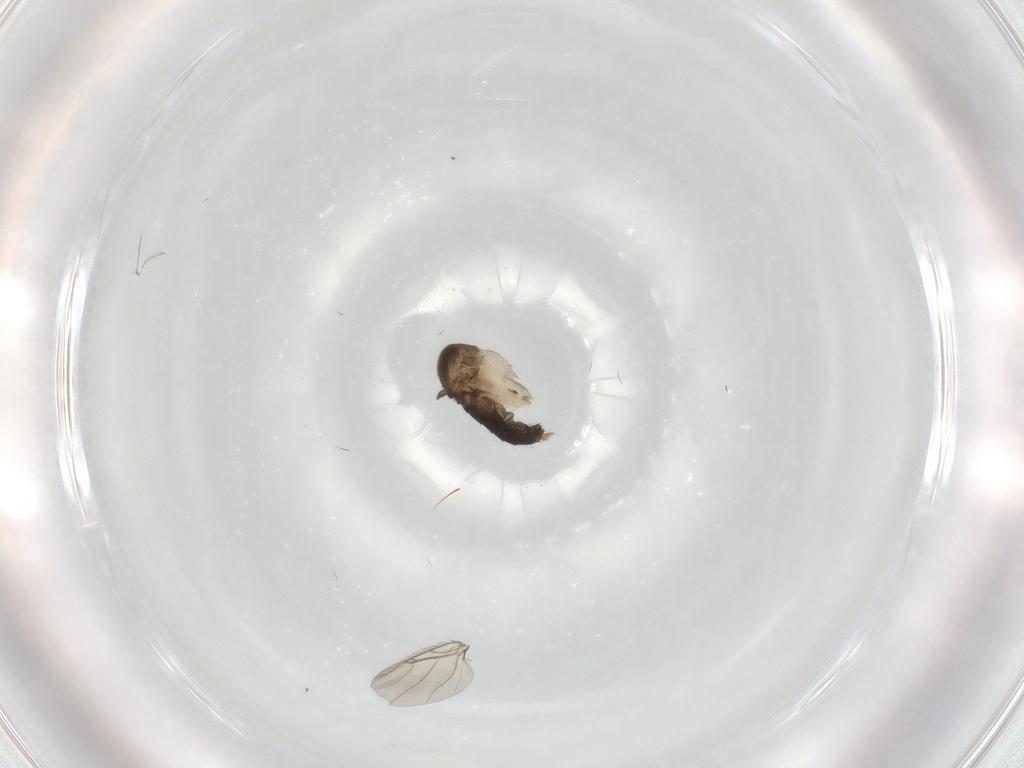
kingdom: Animalia
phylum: Arthropoda
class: Insecta
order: Diptera
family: Phoridae
